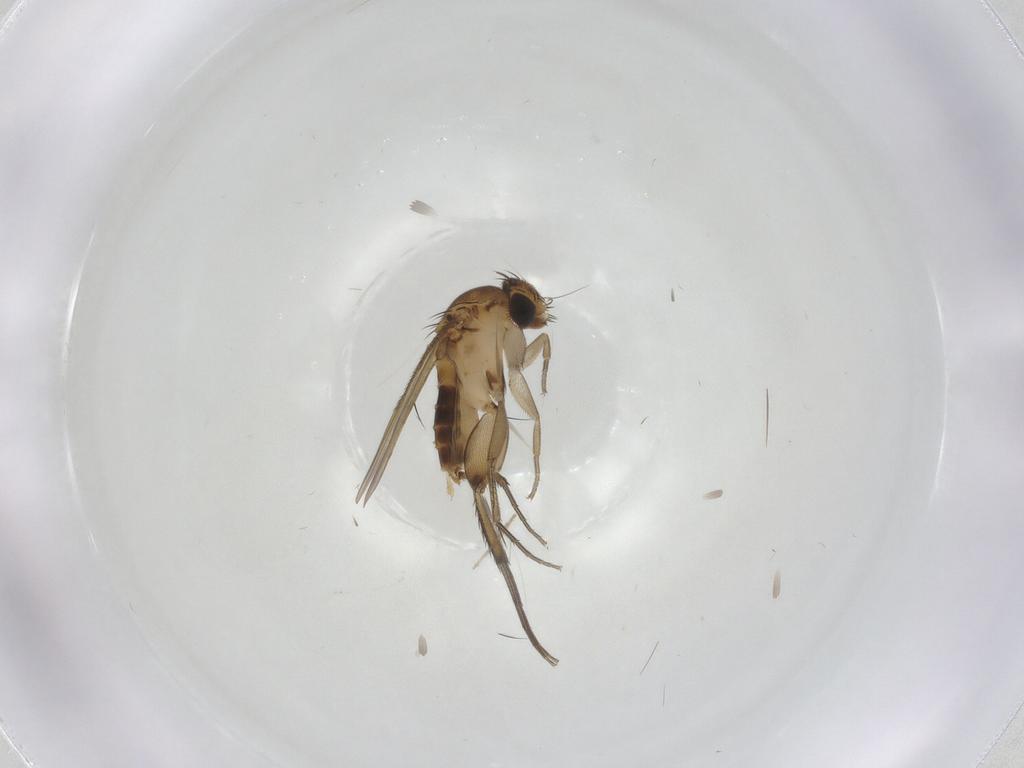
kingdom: Animalia
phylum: Arthropoda
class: Insecta
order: Diptera
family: Phoridae
